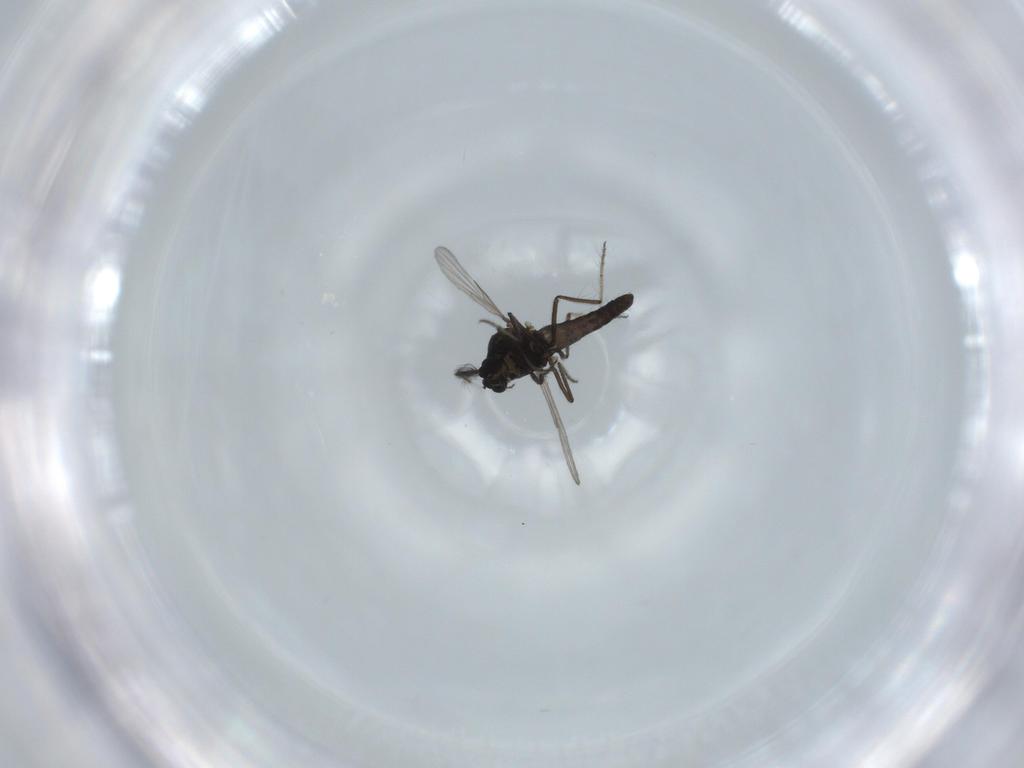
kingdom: Animalia
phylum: Arthropoda
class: Insecta
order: Diptera
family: Ceratopogonidae
